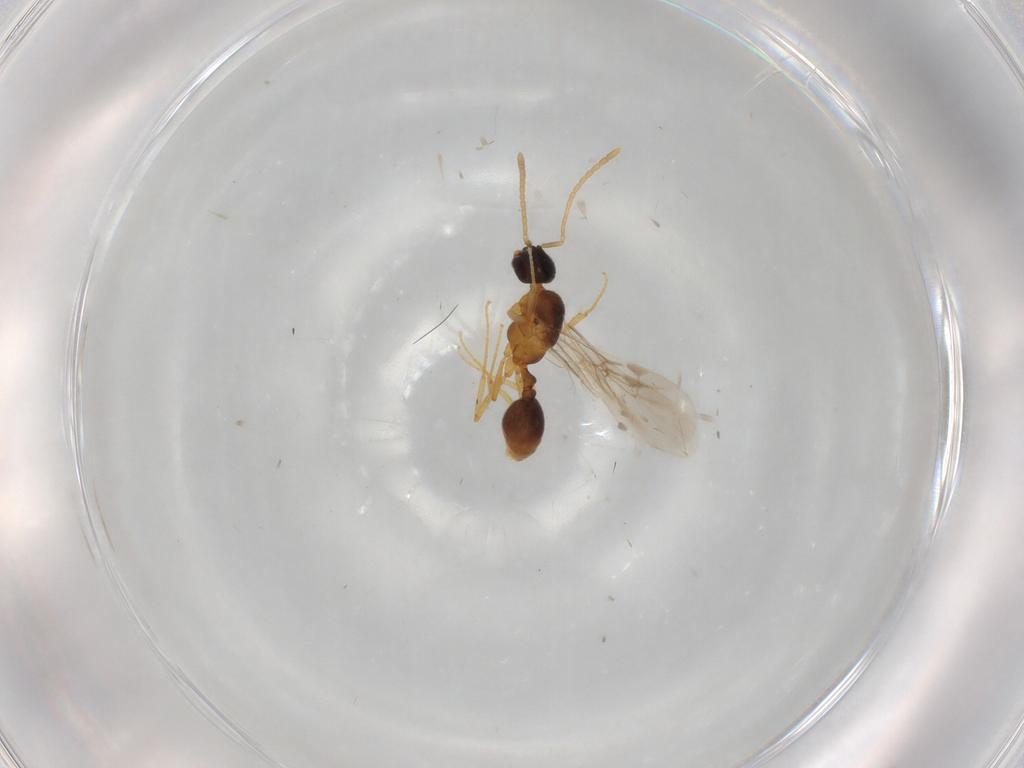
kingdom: Animalia
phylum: Arthropoda
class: Insecta
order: Hymenoptera
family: Formicidae
